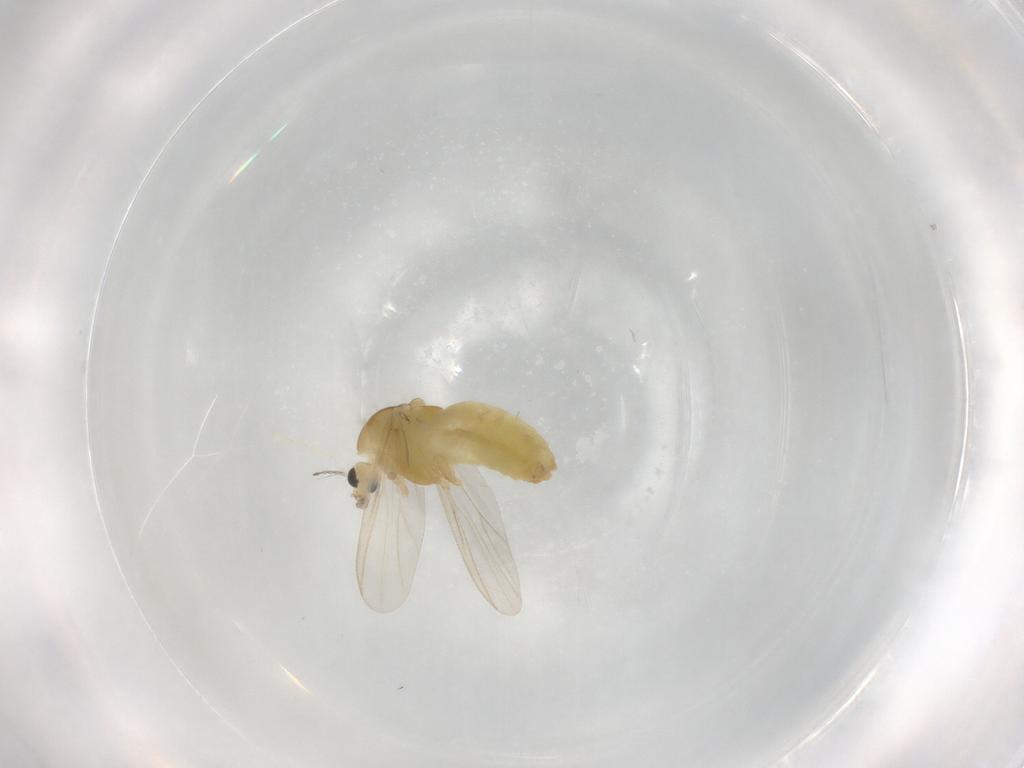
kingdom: Animalia
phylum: Arthropoda
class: Insecta
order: Diptera
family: Chironomidae
